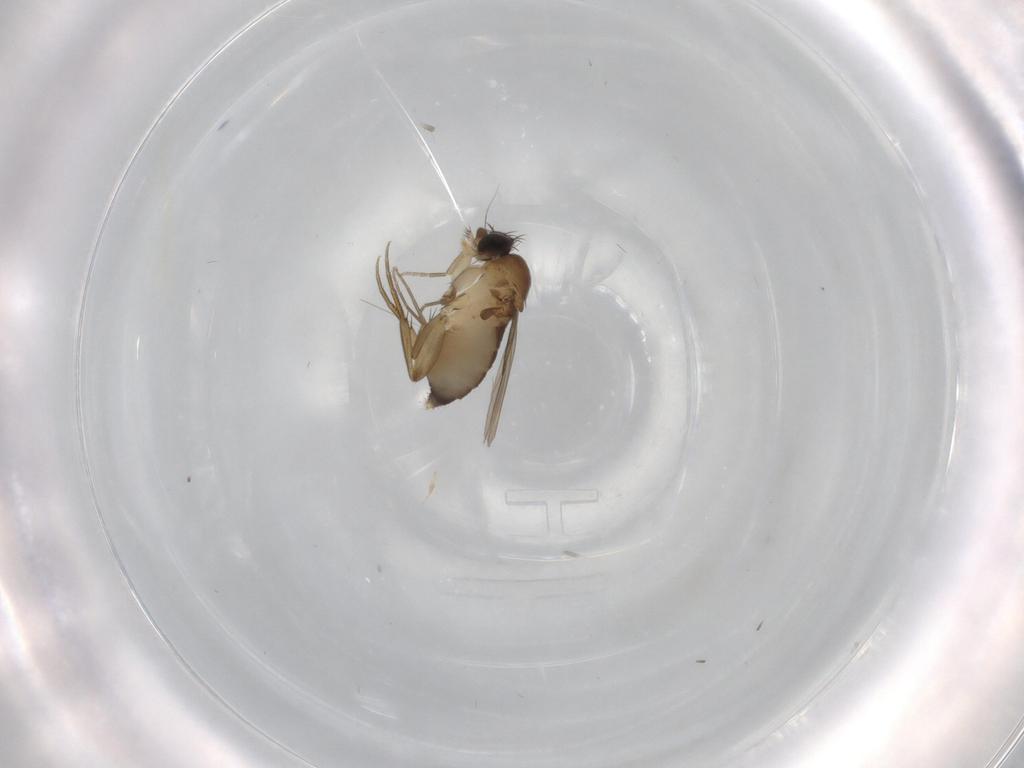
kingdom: Animalia
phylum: Arthropoda
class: Insecta
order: Diptera
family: Phoridae
